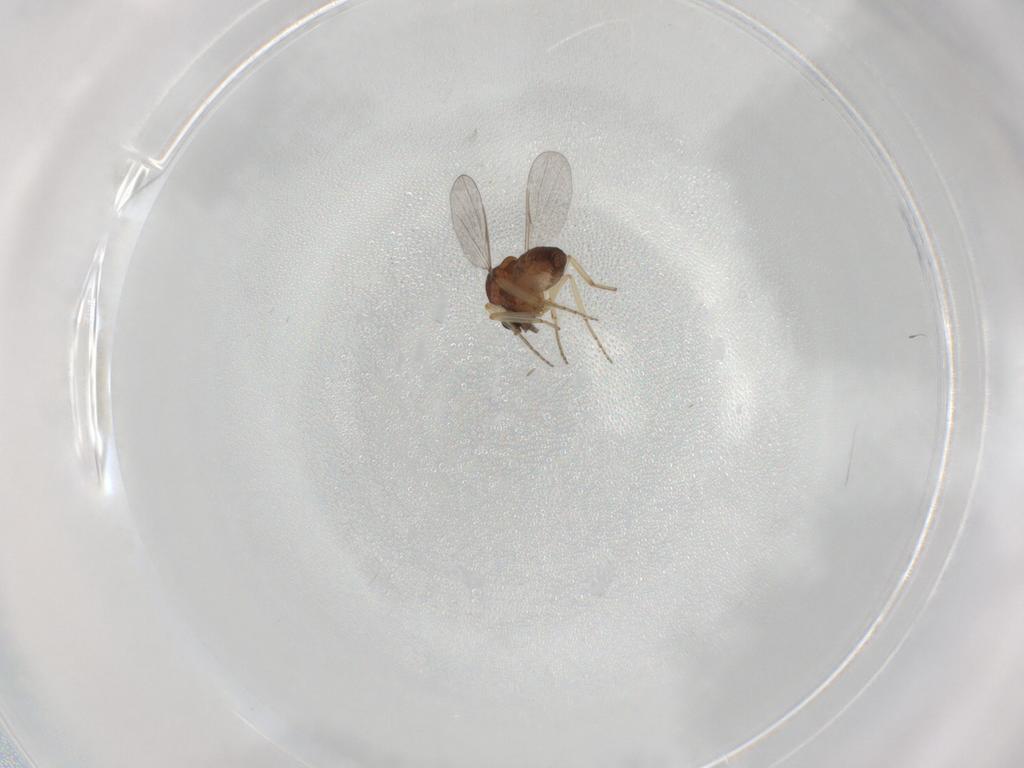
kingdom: Animalia
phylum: Arthropoda
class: Insecta
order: Diptera
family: Ceratopogonidae
